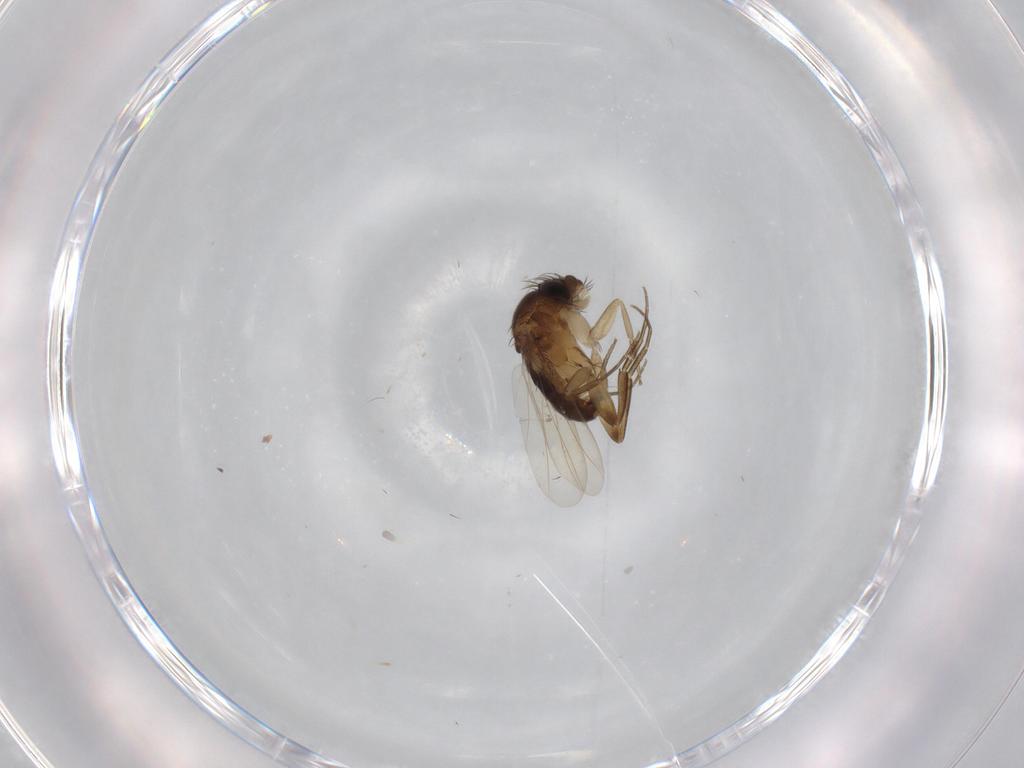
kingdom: Animalia
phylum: Arthropoda
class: Insecta
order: Diptera
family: Phoridae
